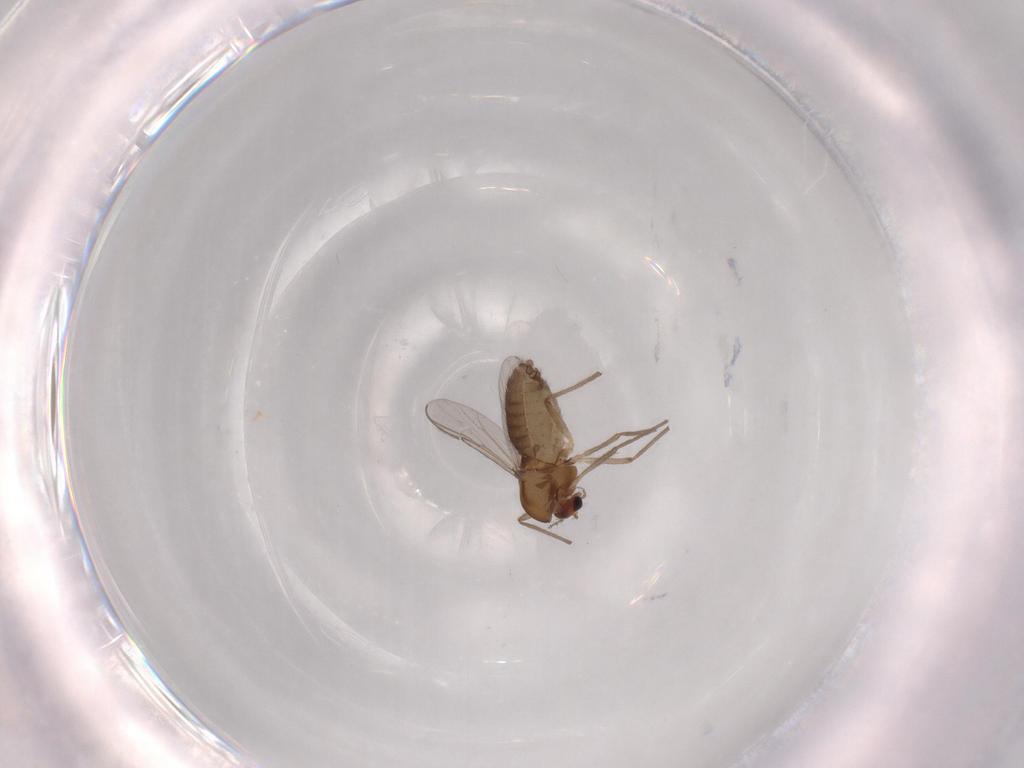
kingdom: Animalia
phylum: Arthropoda
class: Insecta
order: Diptera
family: Chironomidae
